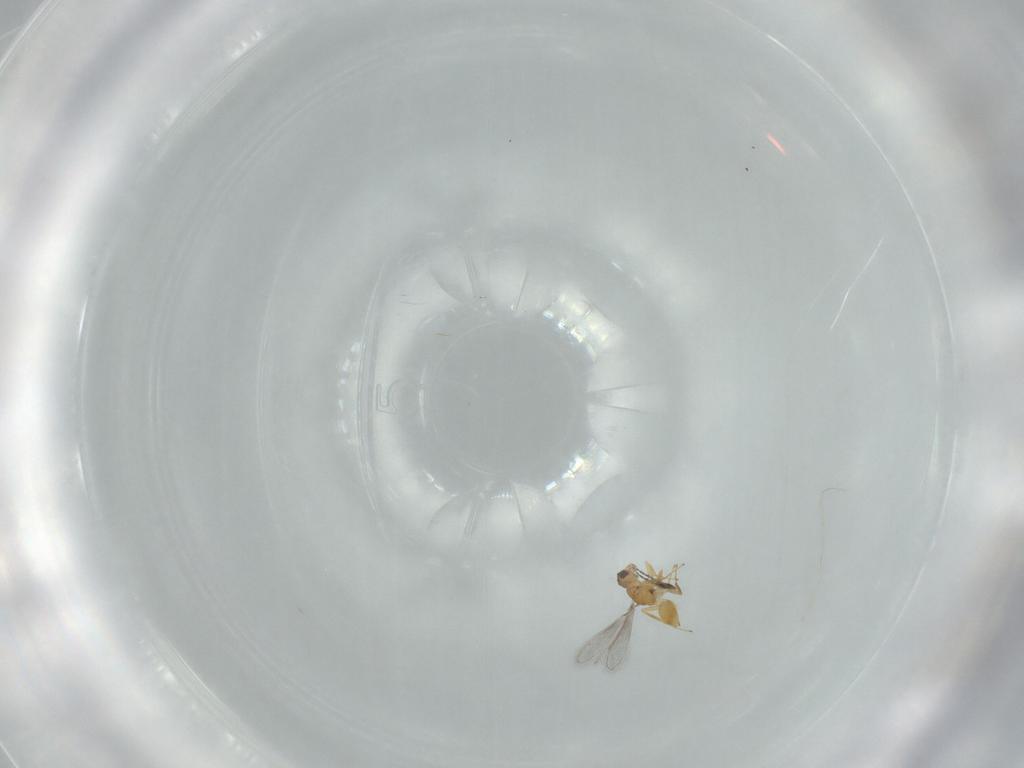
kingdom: Animalia
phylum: Arthropoda
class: Insecta
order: Hymenoptera
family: Mymaridae
